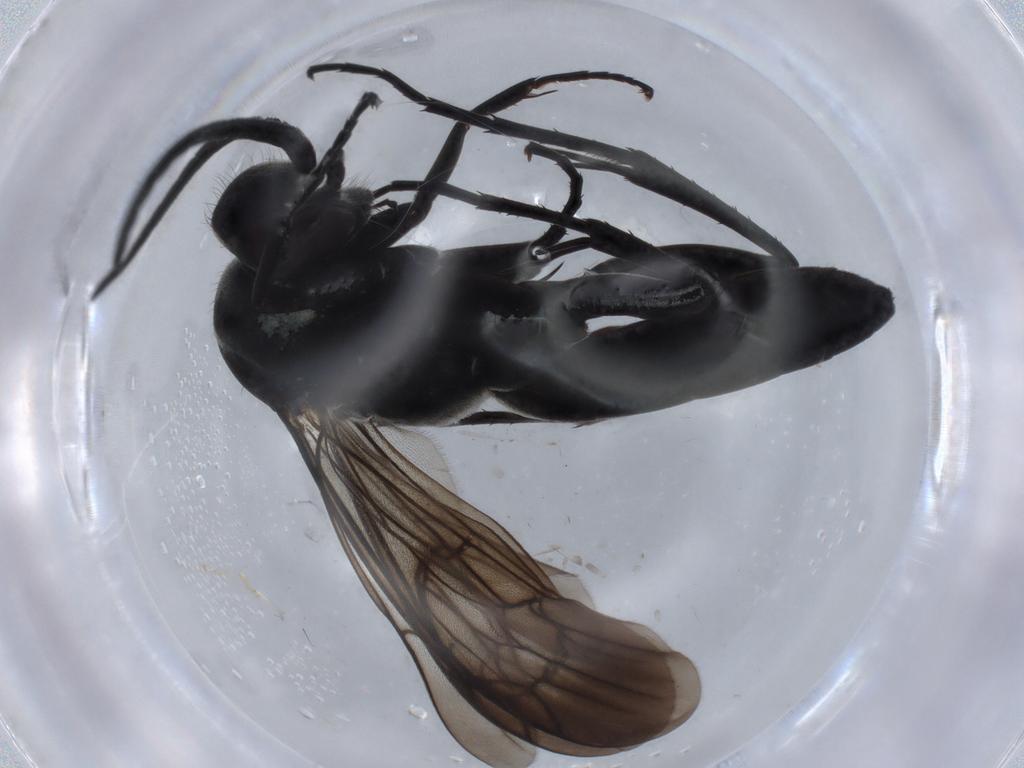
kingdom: Animalia
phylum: Arthropoda
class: Insecta
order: Hymenoptera
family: Pompilidae
